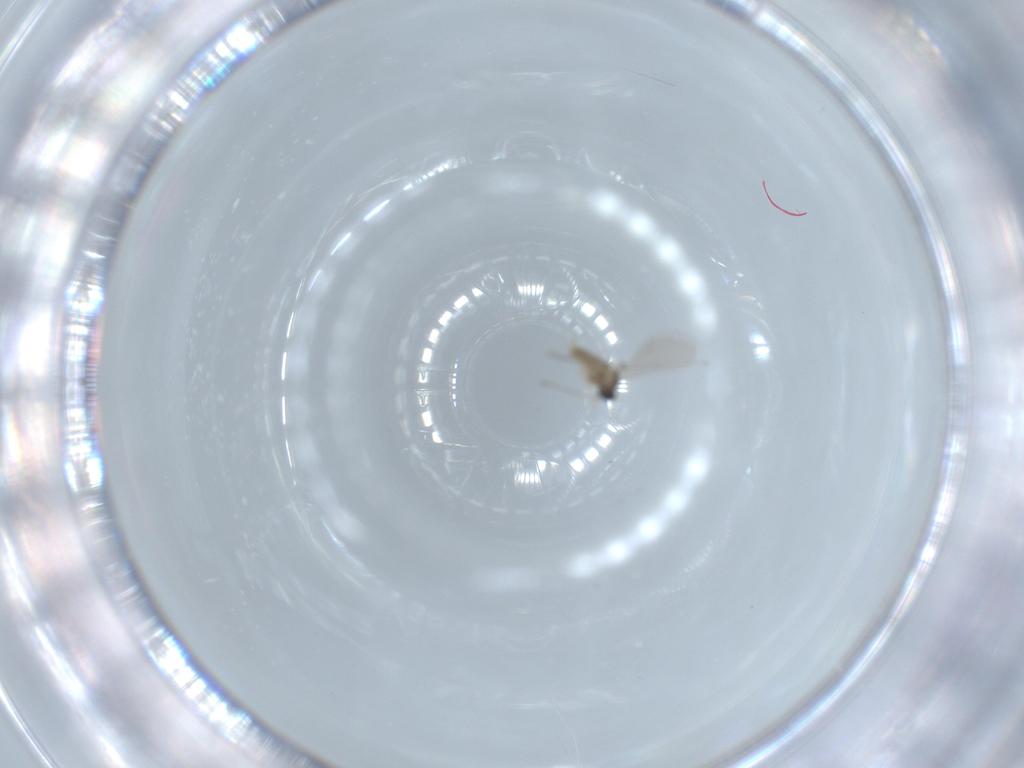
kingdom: Animalia
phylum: Arthropoda
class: Insecta
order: Diptera
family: Cecidomyiidae
